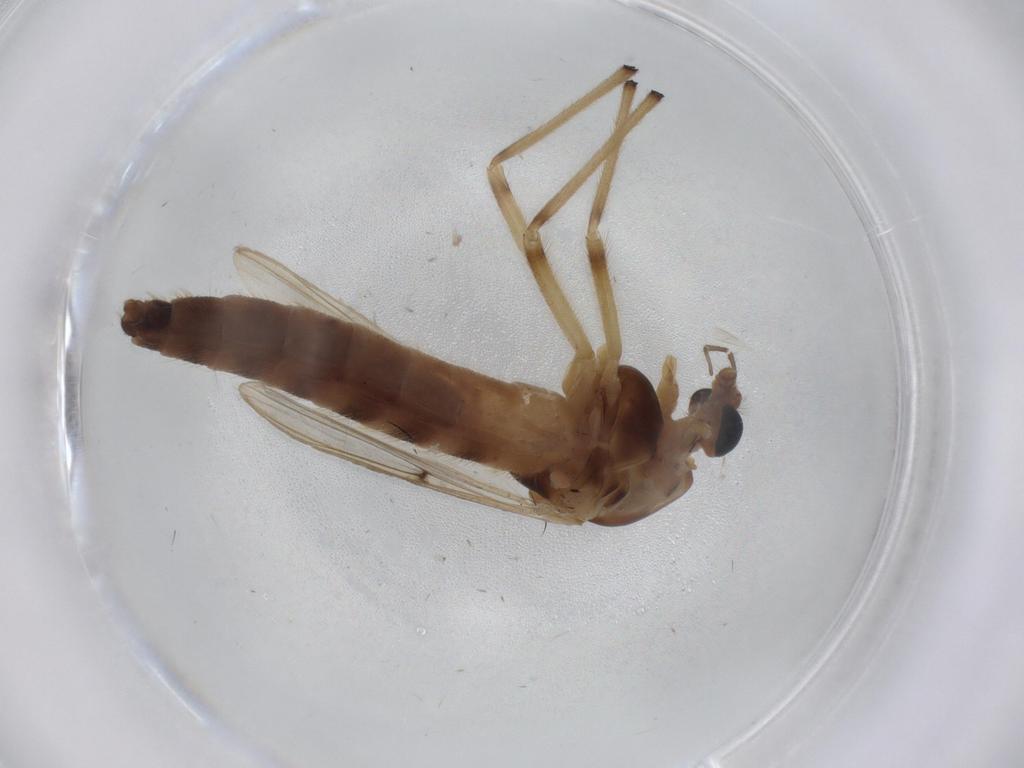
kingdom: Animalia
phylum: Arthropoda
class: Insecta
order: Diptera
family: Chironomidae
